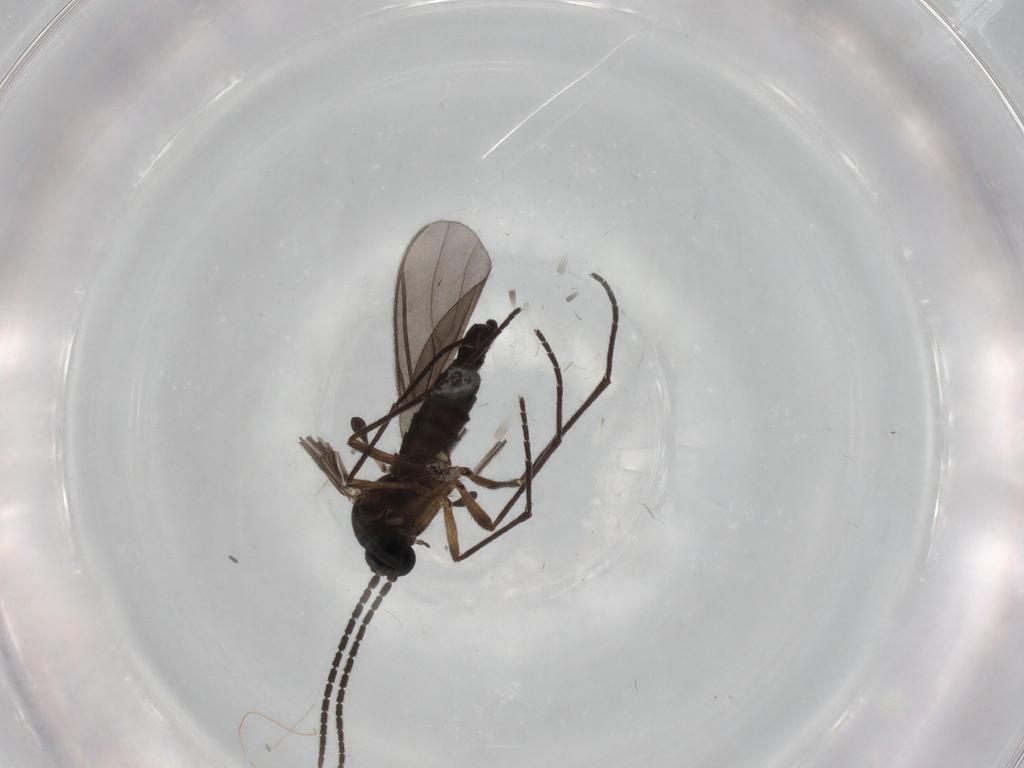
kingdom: Animalia
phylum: Arthropoda
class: Insecta
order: Diptera
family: Sciaridae
